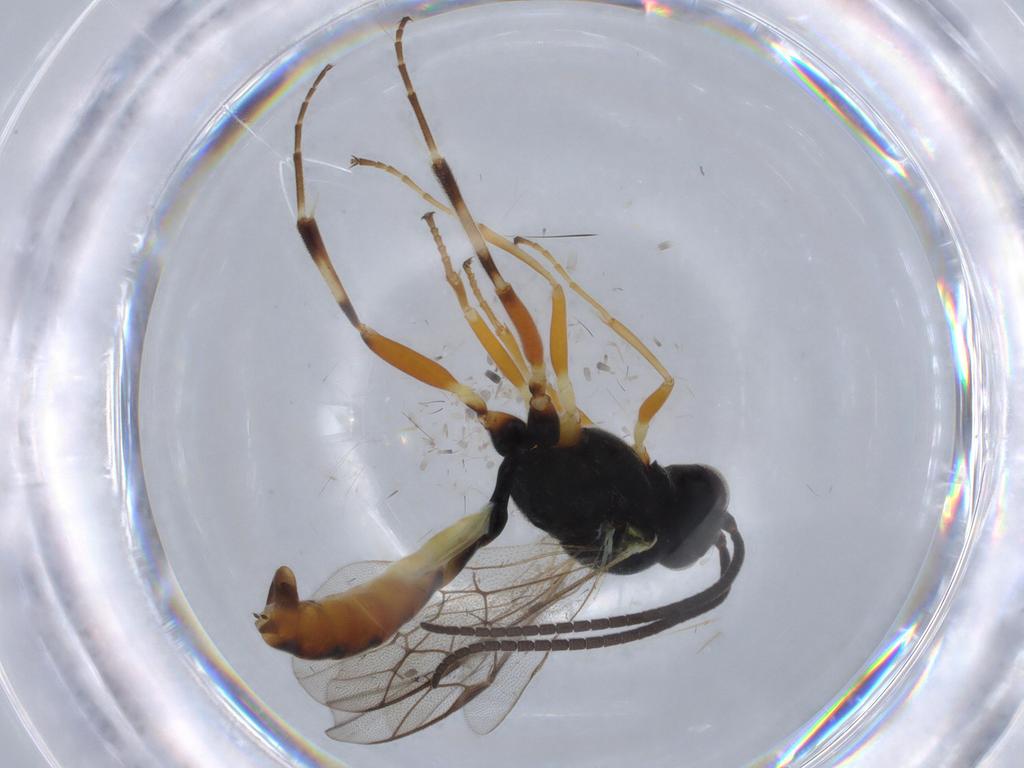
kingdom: Animalia
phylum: Arthropoda
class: Insecta
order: Hymenoptera
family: Ichneumonidae
